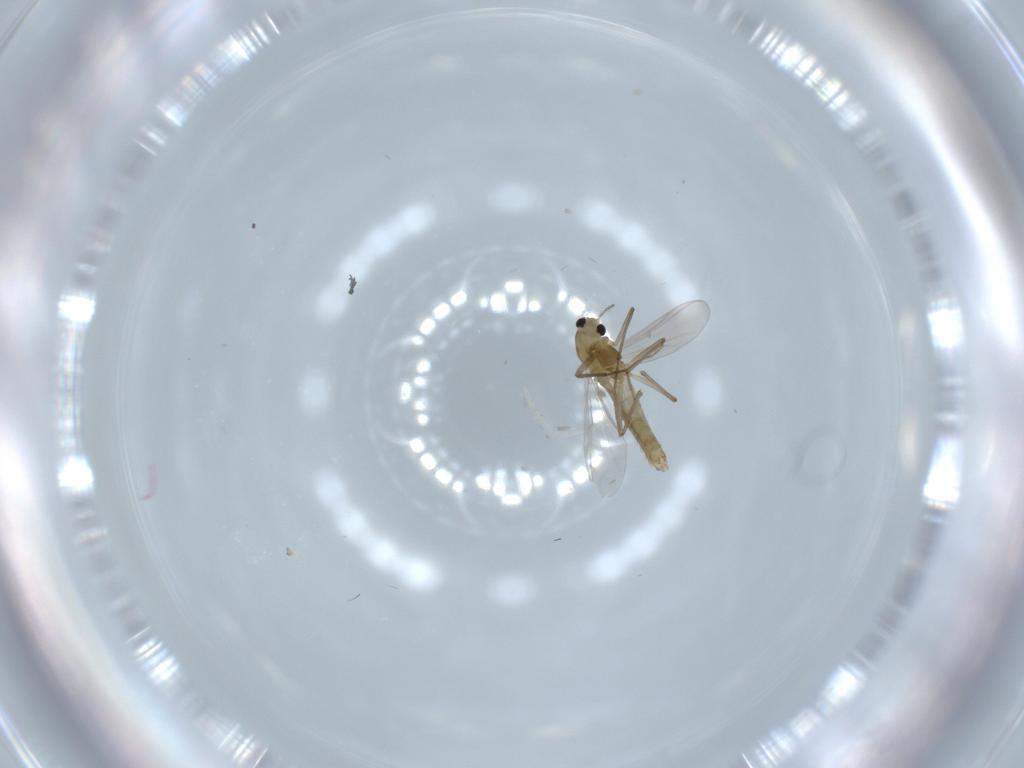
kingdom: Animalia
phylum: Arthropoda
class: Insecta
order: Diptera
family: Chironomidae
